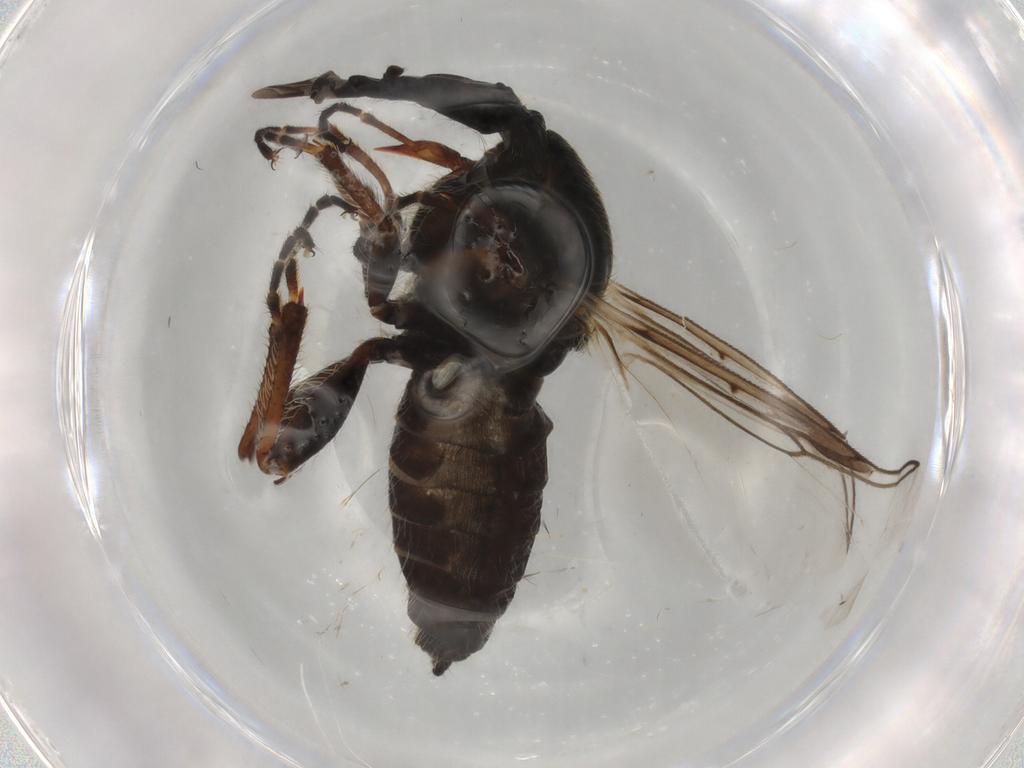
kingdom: Animalia
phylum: Arthropoda
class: Insecta
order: Diptera
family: Bibionidae
